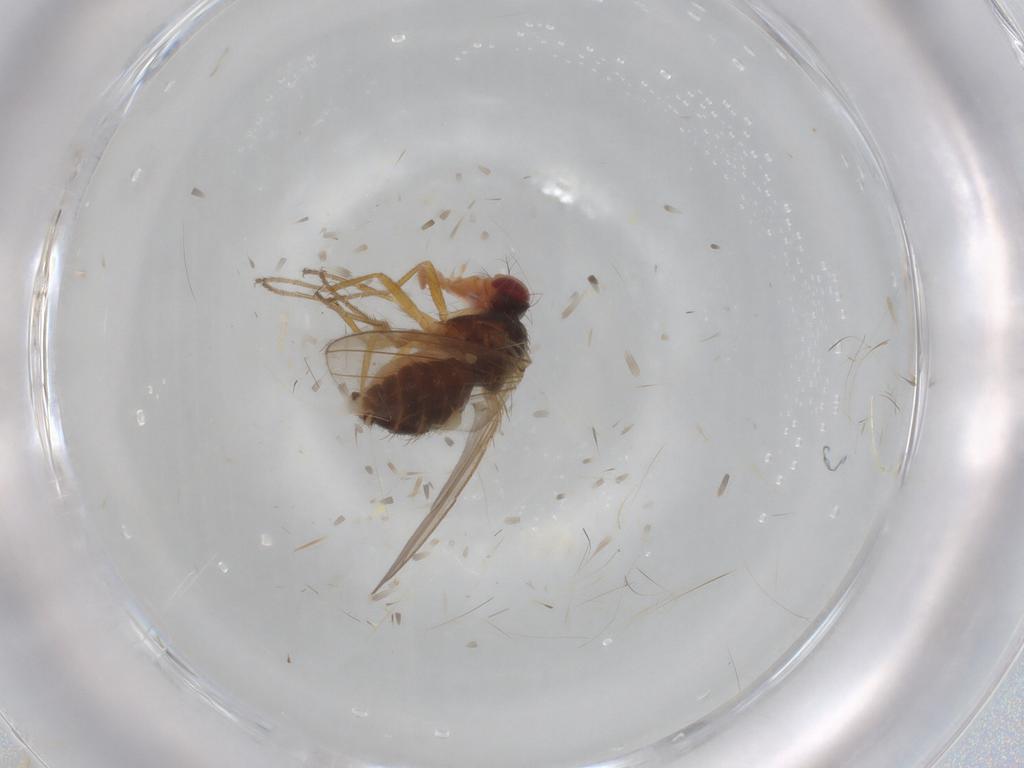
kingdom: Animalia
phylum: Arthropoda
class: Insecta
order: Diptera
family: Drosophilidae
